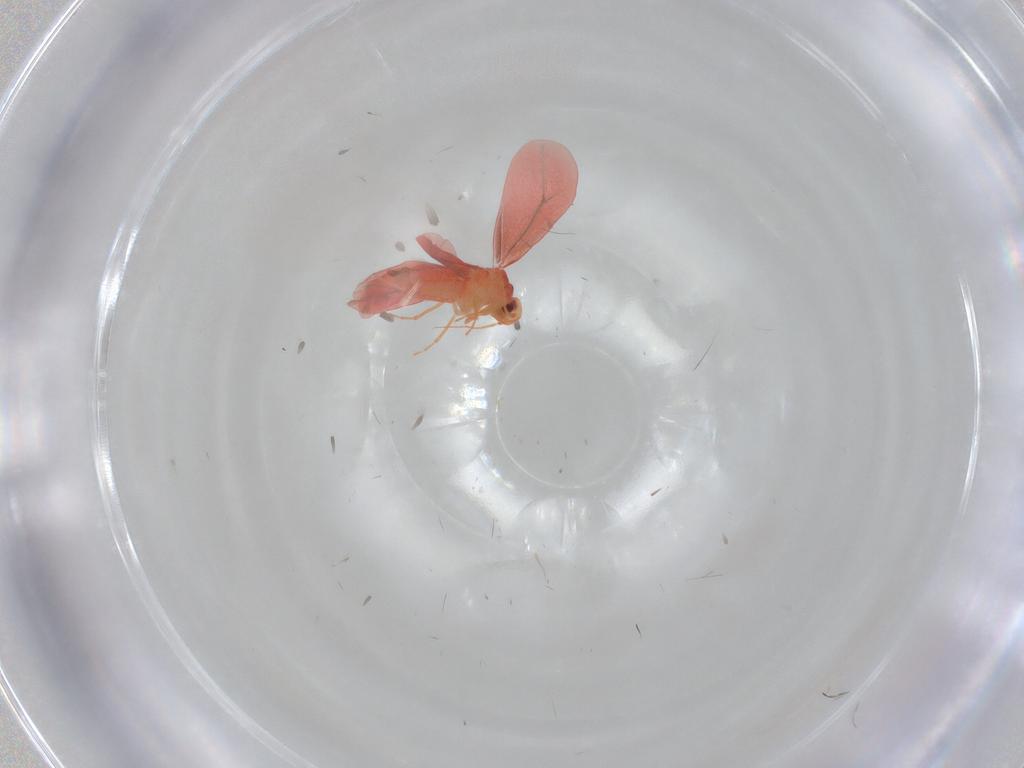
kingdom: Animalia
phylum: Arthropoda
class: Insecta
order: Hemiptera
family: Aleyrodidae
